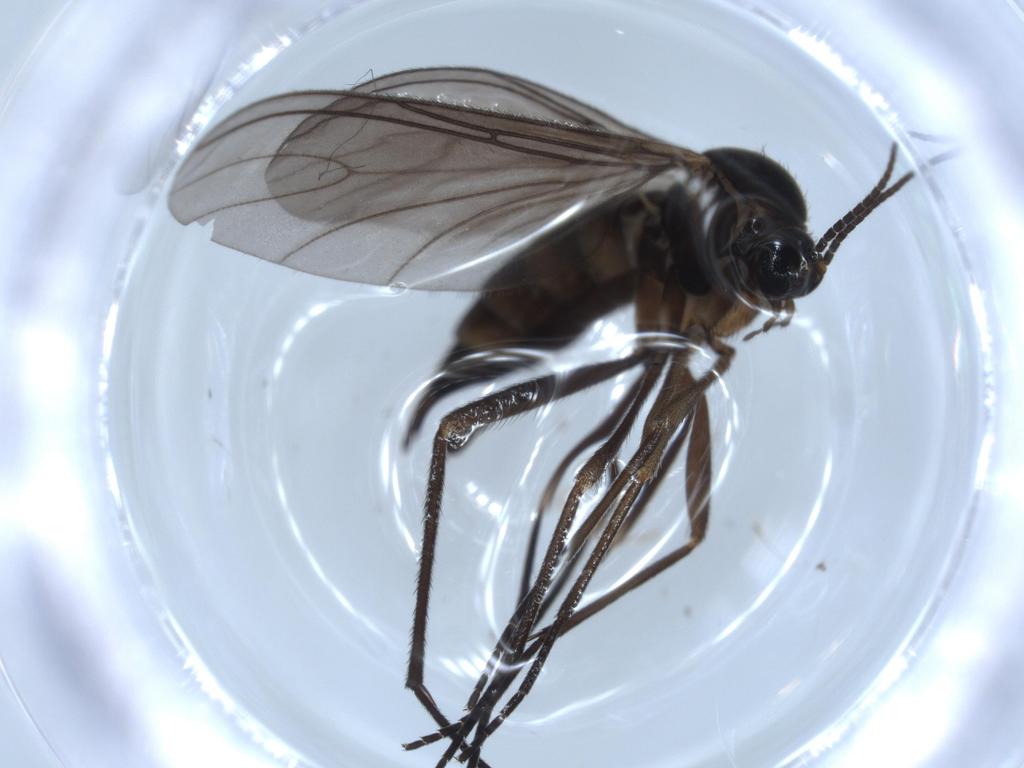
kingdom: Animalia
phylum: Arthropoda
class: Insecta
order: Diptera
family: Sciaridae
